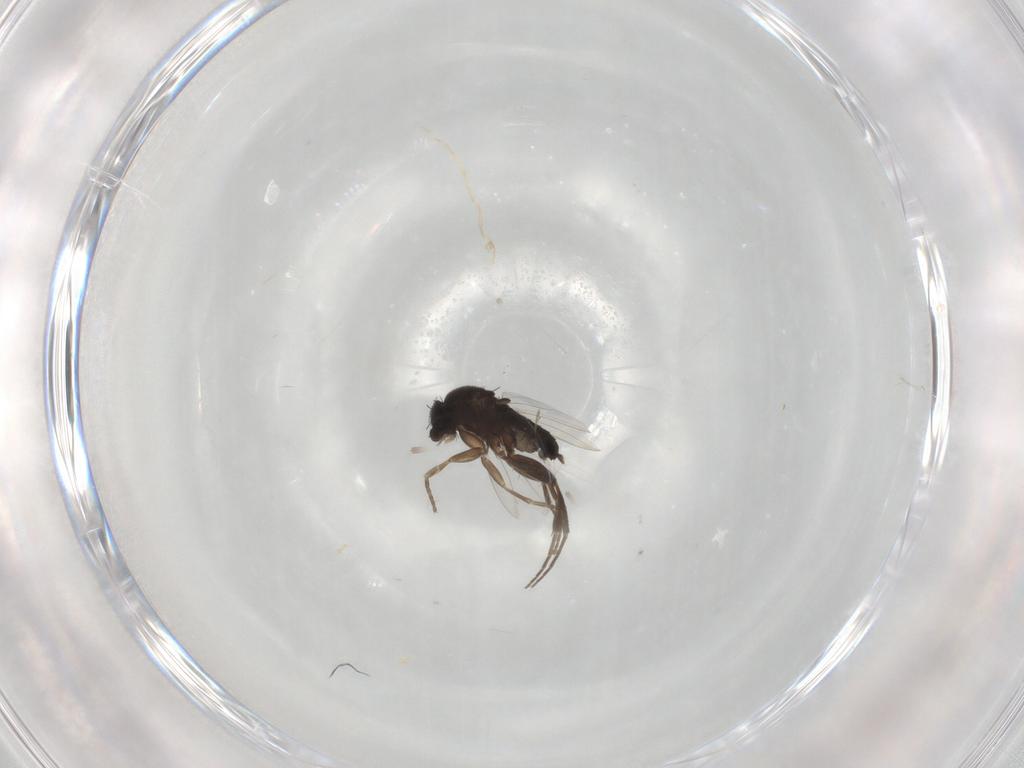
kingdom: Animalia
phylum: Arthropoda
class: Insecta
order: Diptera
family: Phoridae
